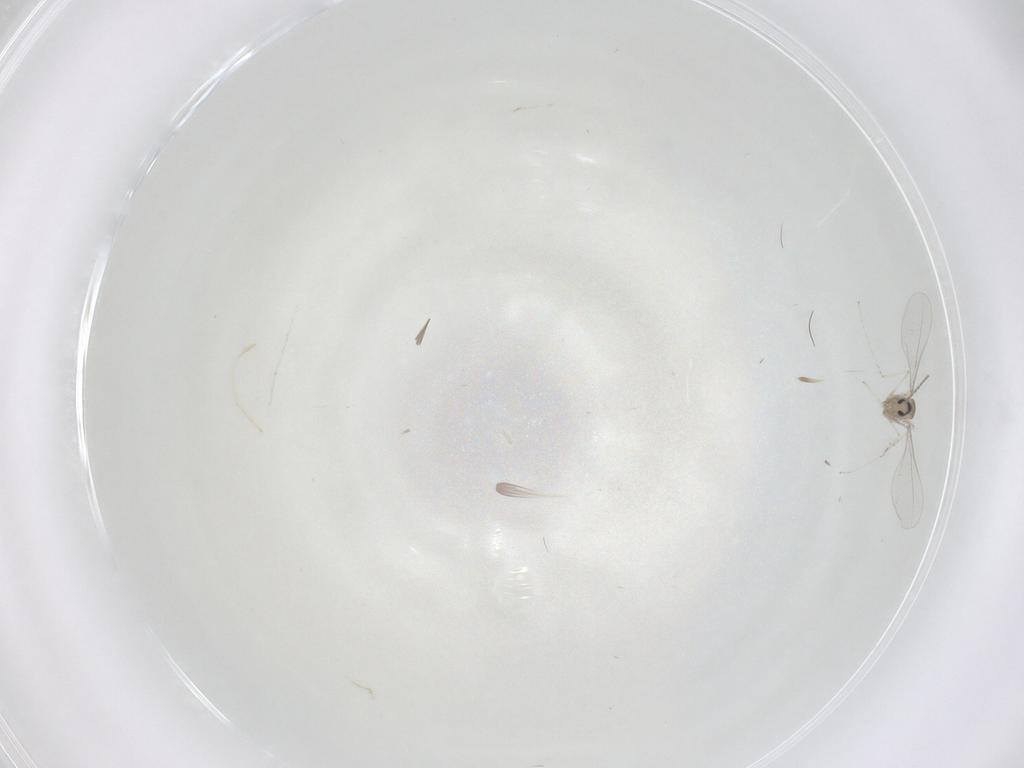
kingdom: Animalia
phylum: Arthropoda
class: Insecta
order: Diptera
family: Cecidomyiidae
